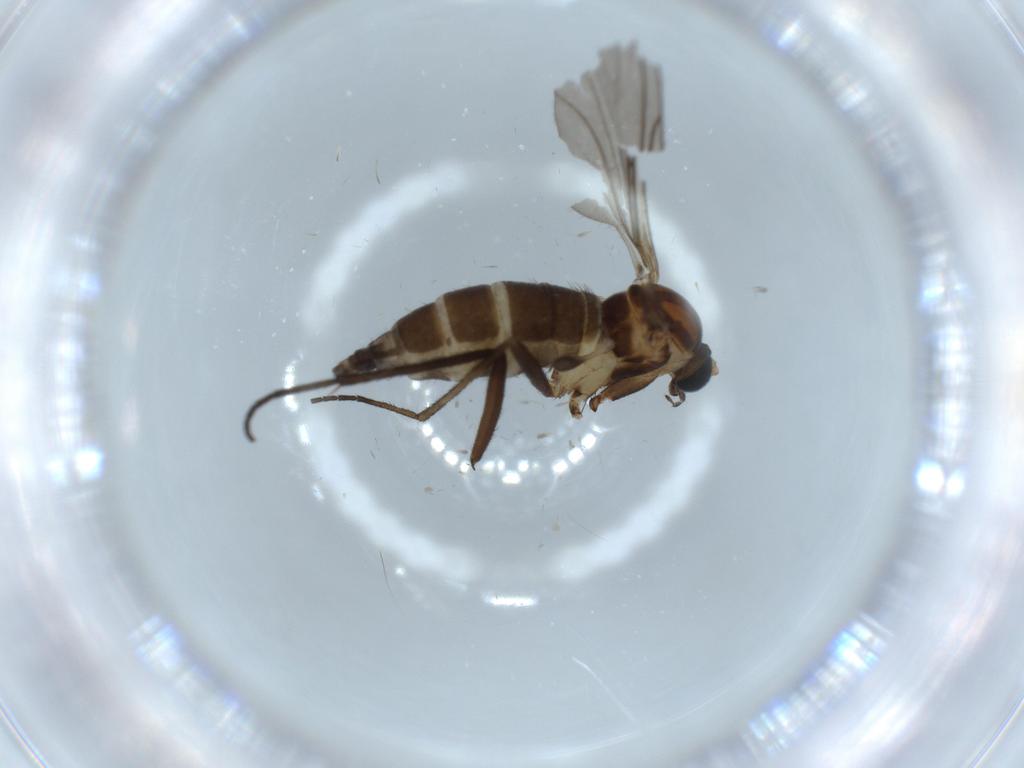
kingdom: Animalia
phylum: Arthropoda
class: Insecta
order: Diptera
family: Sciaridae
